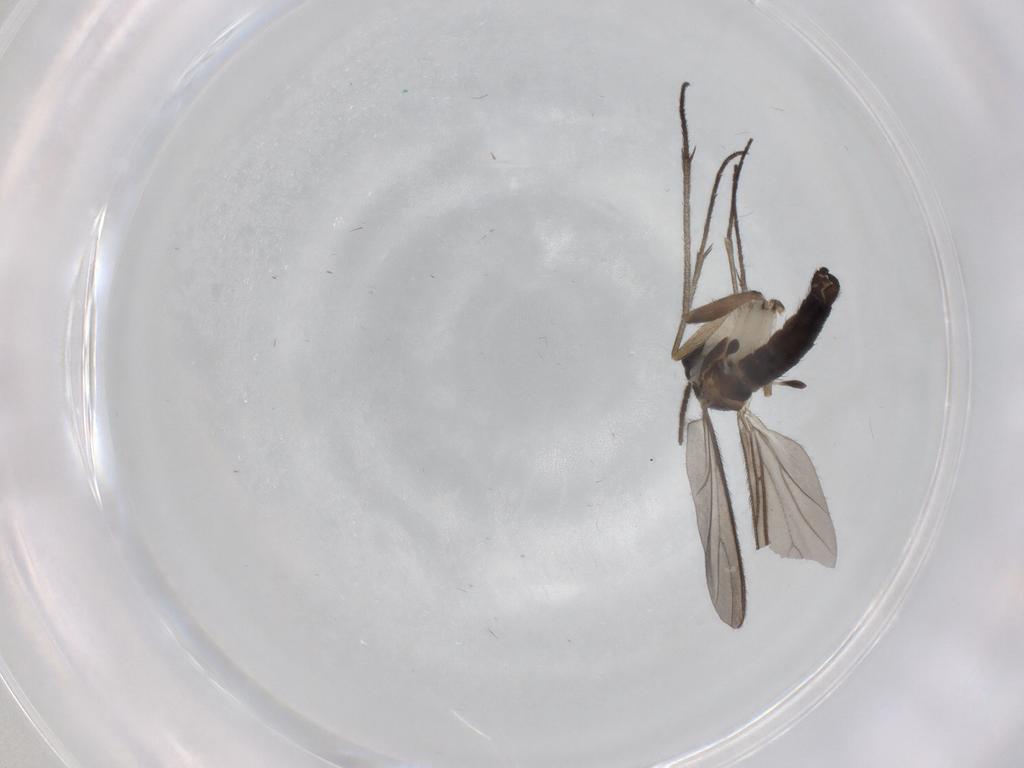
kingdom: Animalia
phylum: Arthropoda
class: Insecta
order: Diptera
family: Sciaridae
